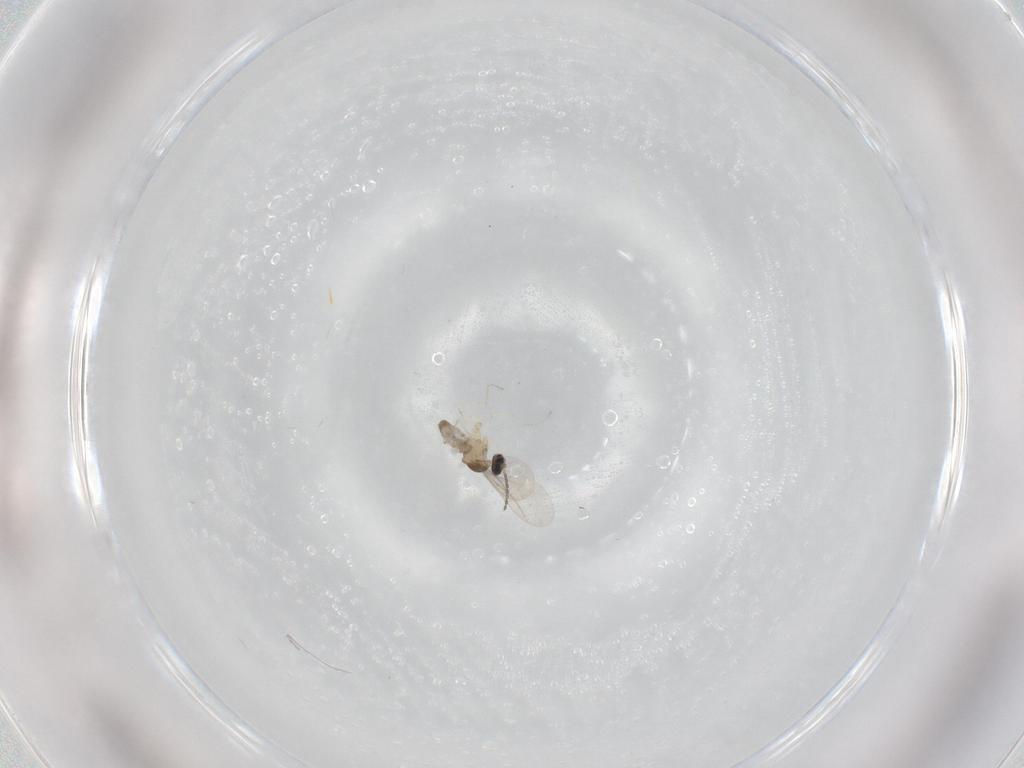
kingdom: Animalia
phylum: Arthropoda
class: Insecta
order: Diptera
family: Cecidomyiidae
